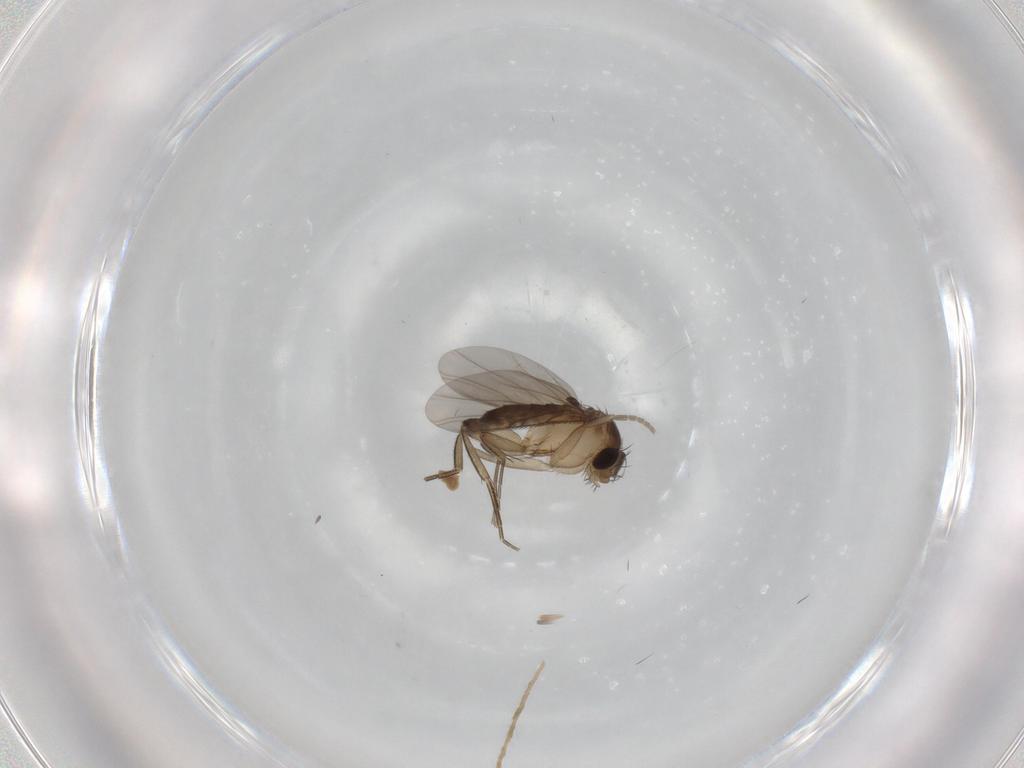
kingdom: Animalia
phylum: Arthropoda
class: Insecta
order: Diptera
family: Phoridae
